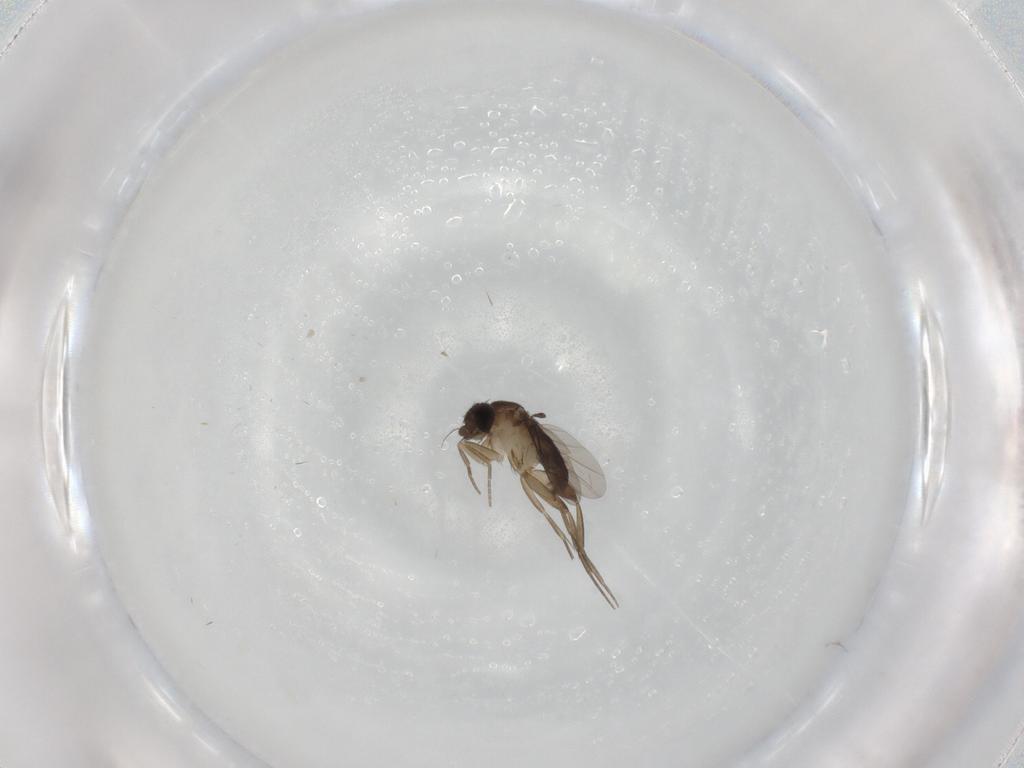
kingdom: Animalia
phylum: Arthropoda
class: Insecta
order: Diptera
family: Phoridae
